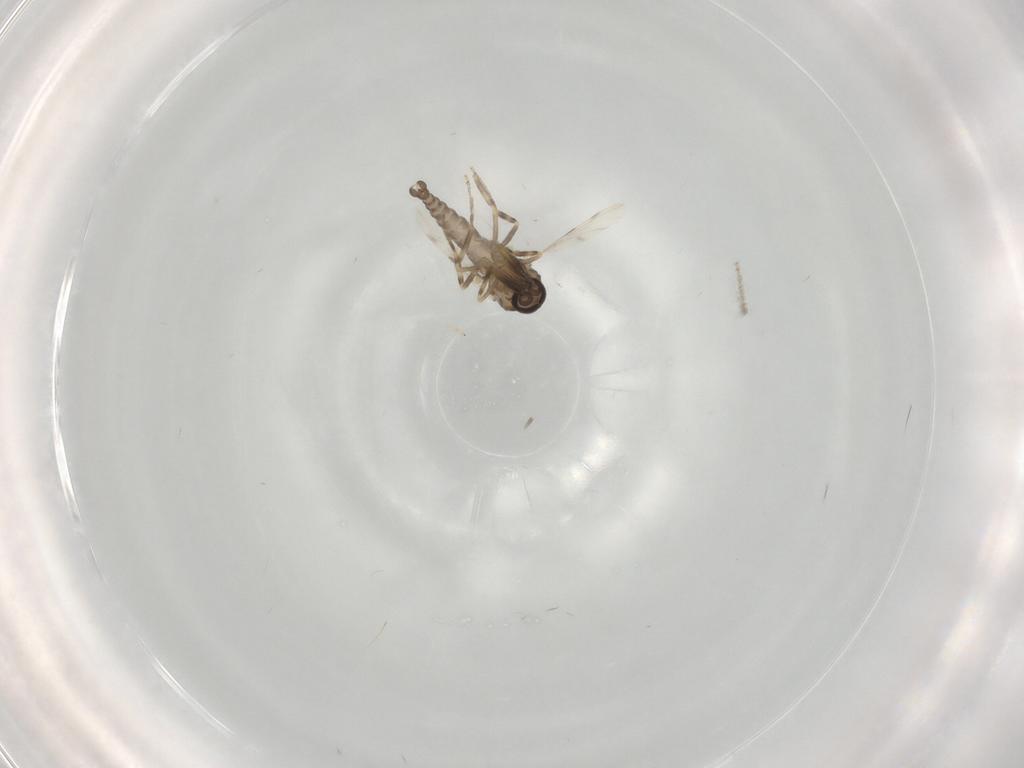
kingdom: Animalia
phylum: Arthropoda
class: Insecta
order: Diptera
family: Ceratopogonidae
